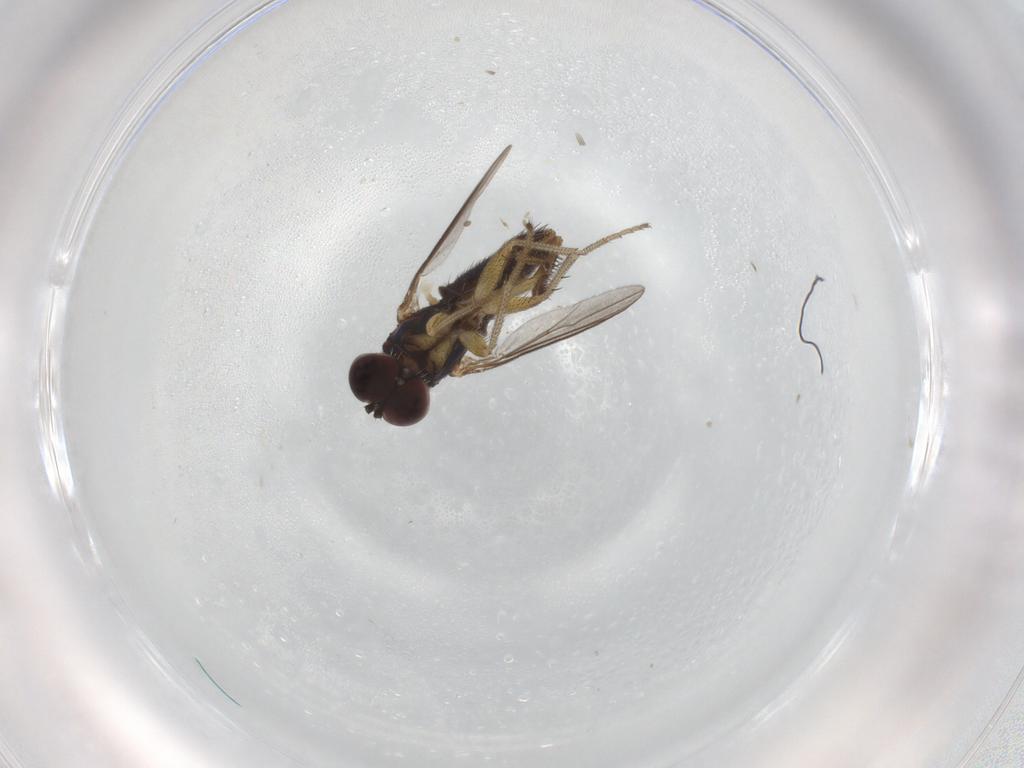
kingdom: Animalia
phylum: Arthropoda
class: Insecta
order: Diptera
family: Dolichopodidae
